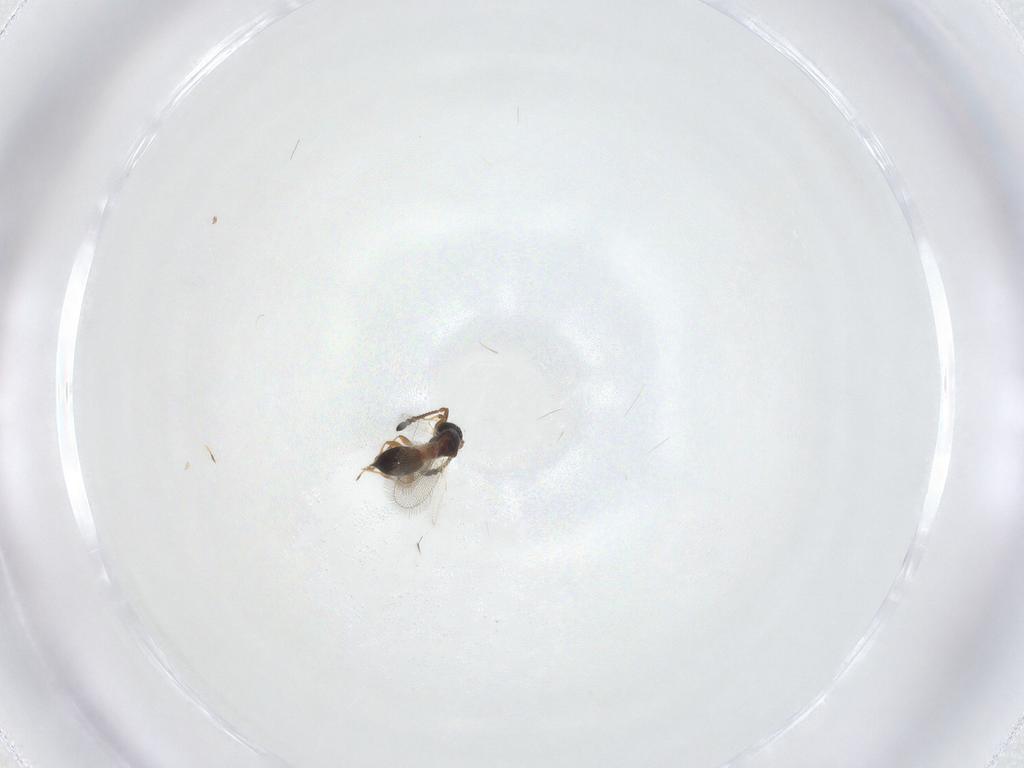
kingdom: Animalia
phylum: Arthropoda
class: Insecta
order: Hymenoptera
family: Diapriidae
